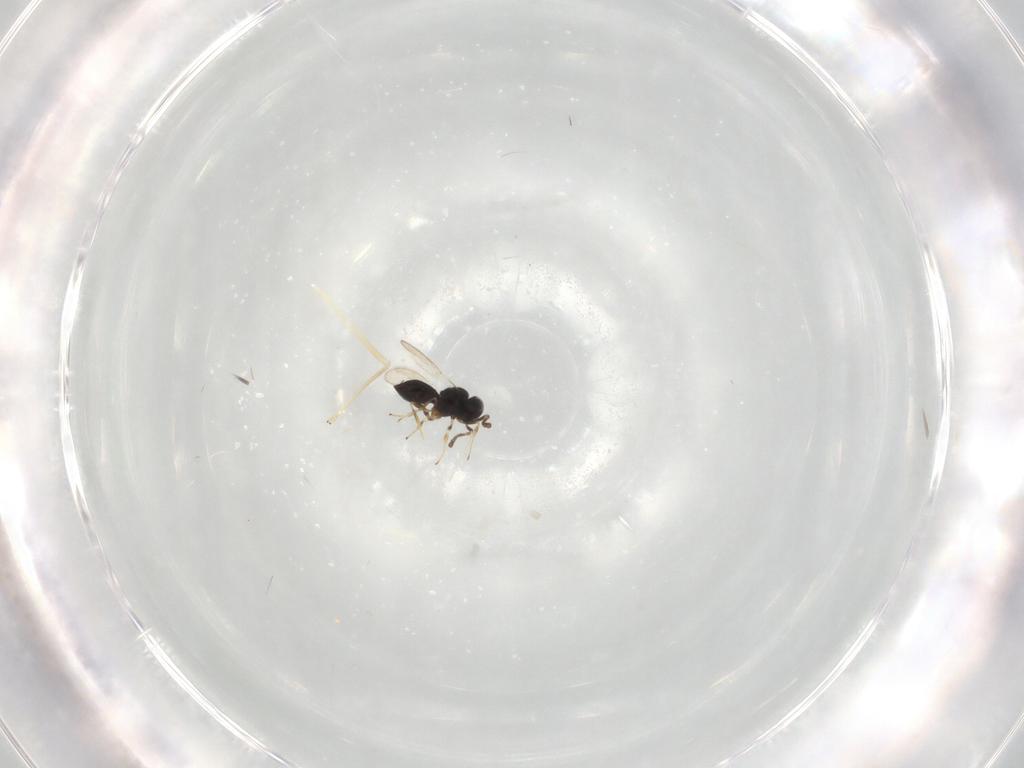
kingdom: Animalia
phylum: Arthropoda
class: Insecta
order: Hymenoptera
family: Scelionidae
